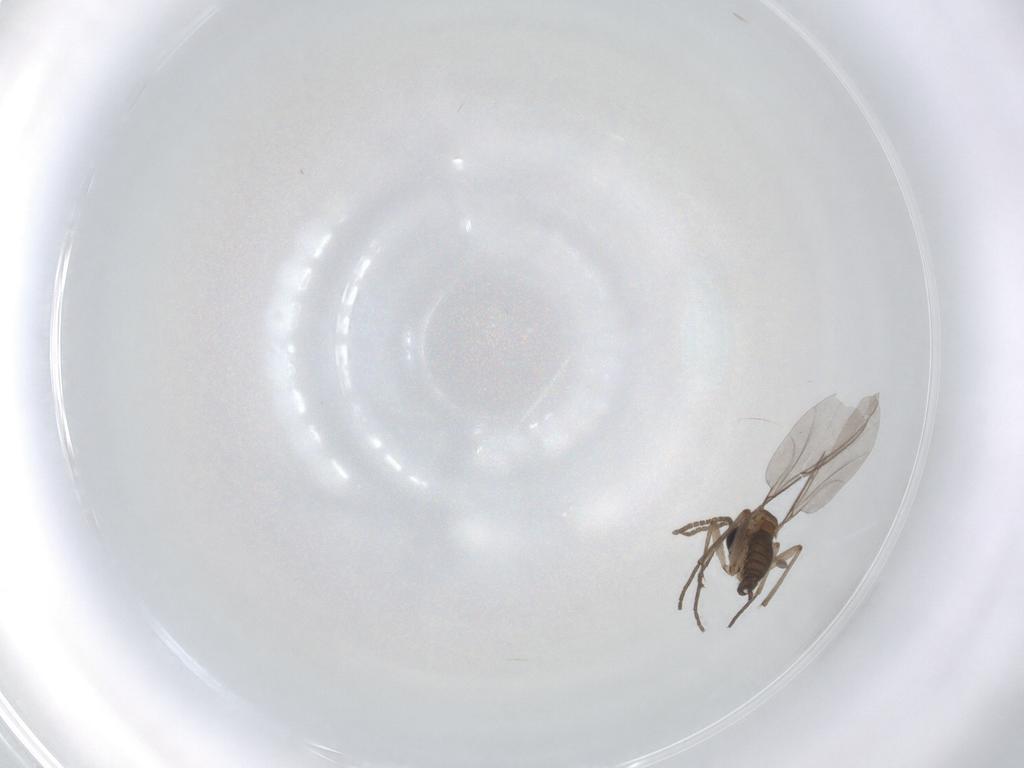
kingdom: Animalia
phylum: Arthropoda
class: Insecta
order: Diptera
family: Sciaridae
